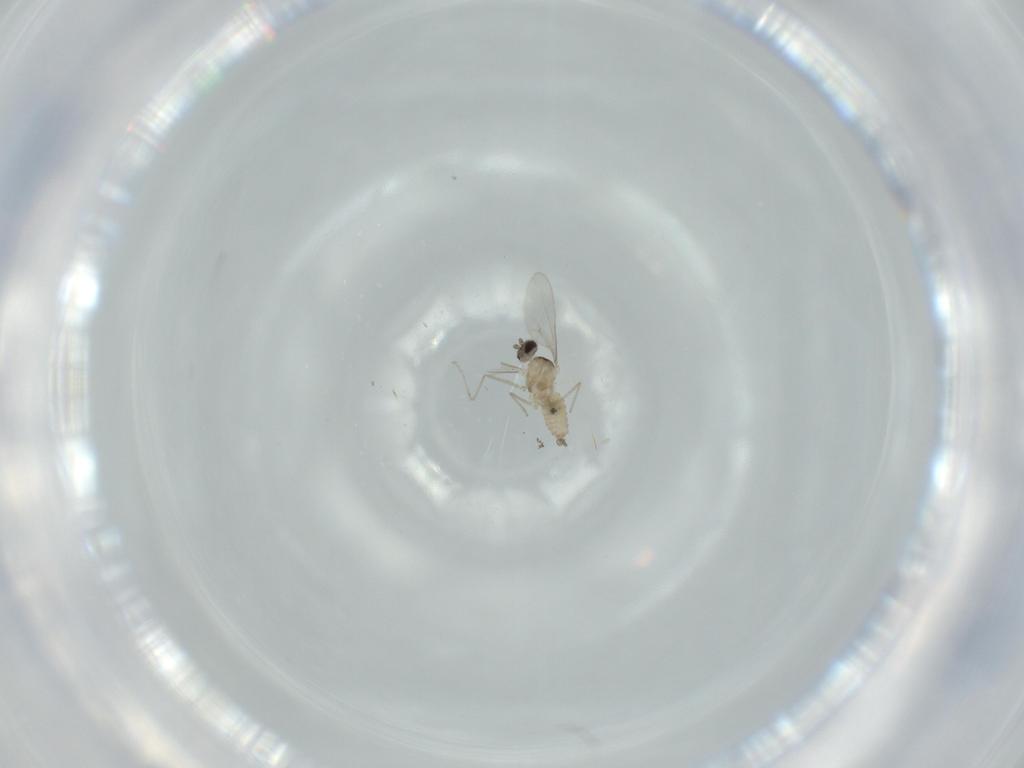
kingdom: Animalia
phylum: Arthropoda
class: Insecta
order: Diptera
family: Cecidomyiidae
